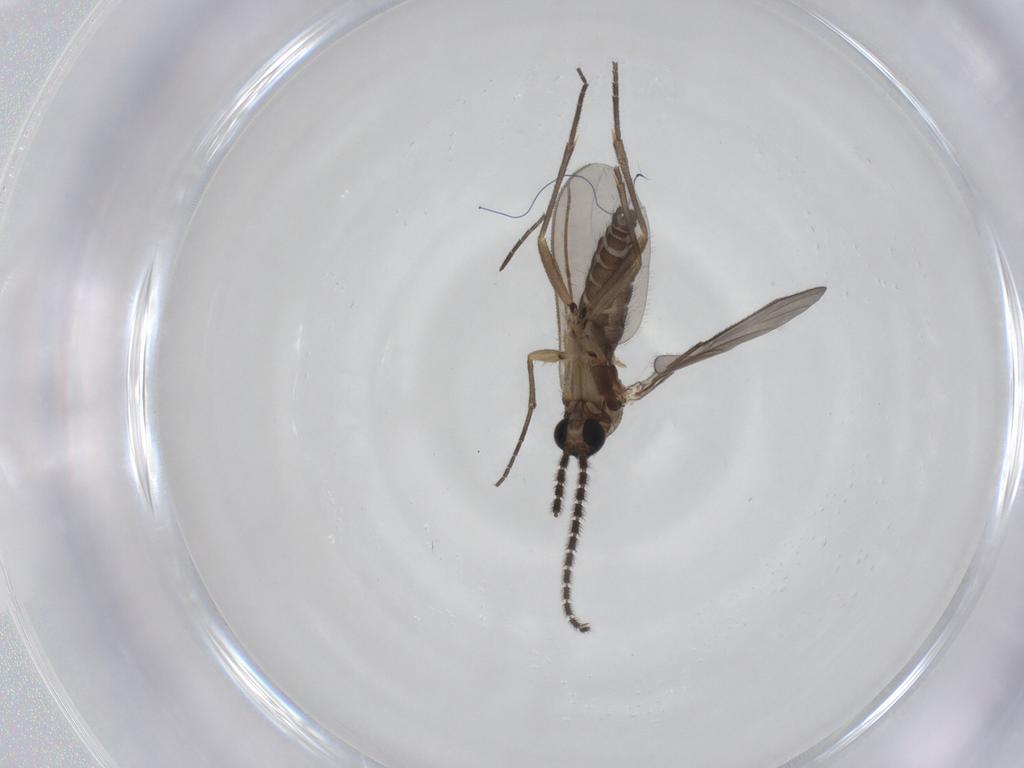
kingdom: Animalia
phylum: Arthropoda
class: Insecta
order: Diptera
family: Sciaridae
